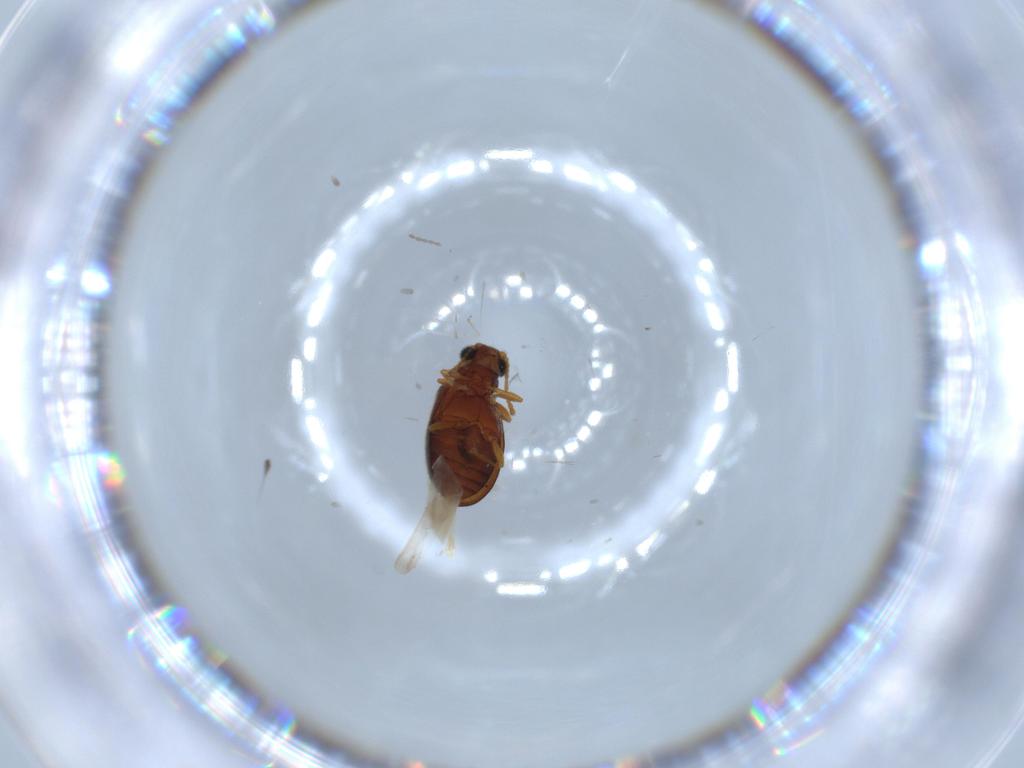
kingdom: Animalia
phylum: Arthropoda
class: Insecta
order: Coleoptera
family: Aderidae
